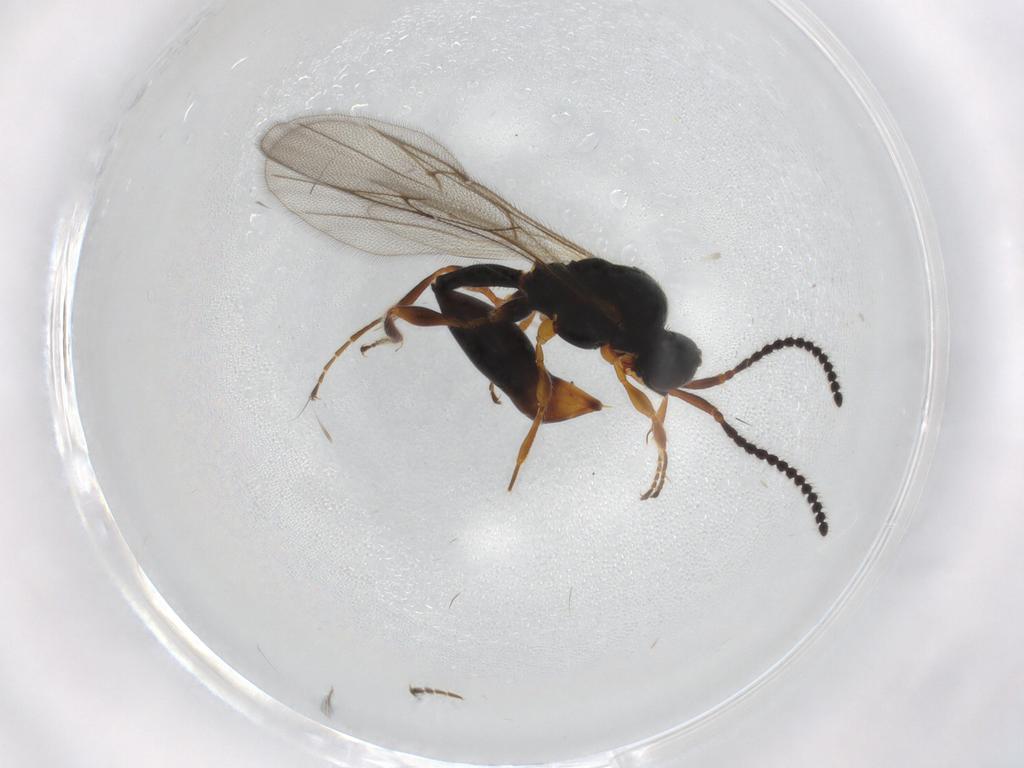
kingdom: Animalia
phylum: Arthropoda
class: Insecta
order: Hymenoptera
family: Diapriidae
